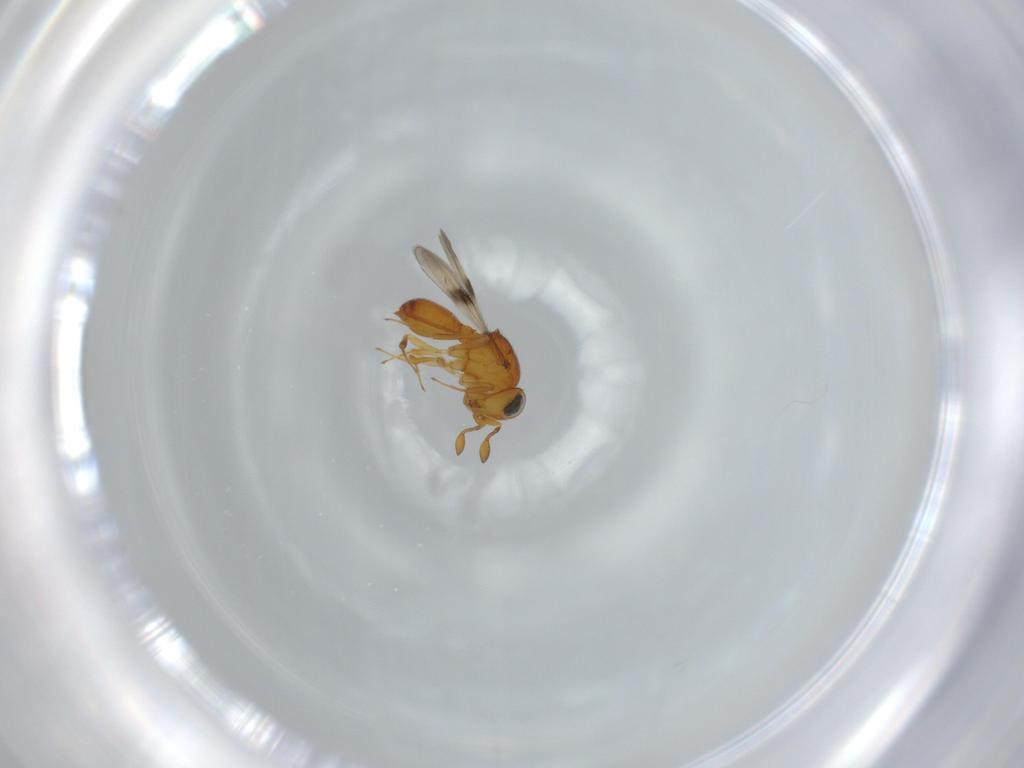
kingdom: Animalia
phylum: Arthropoda
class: Insecta
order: Hymenoptera
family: Scelionidae
